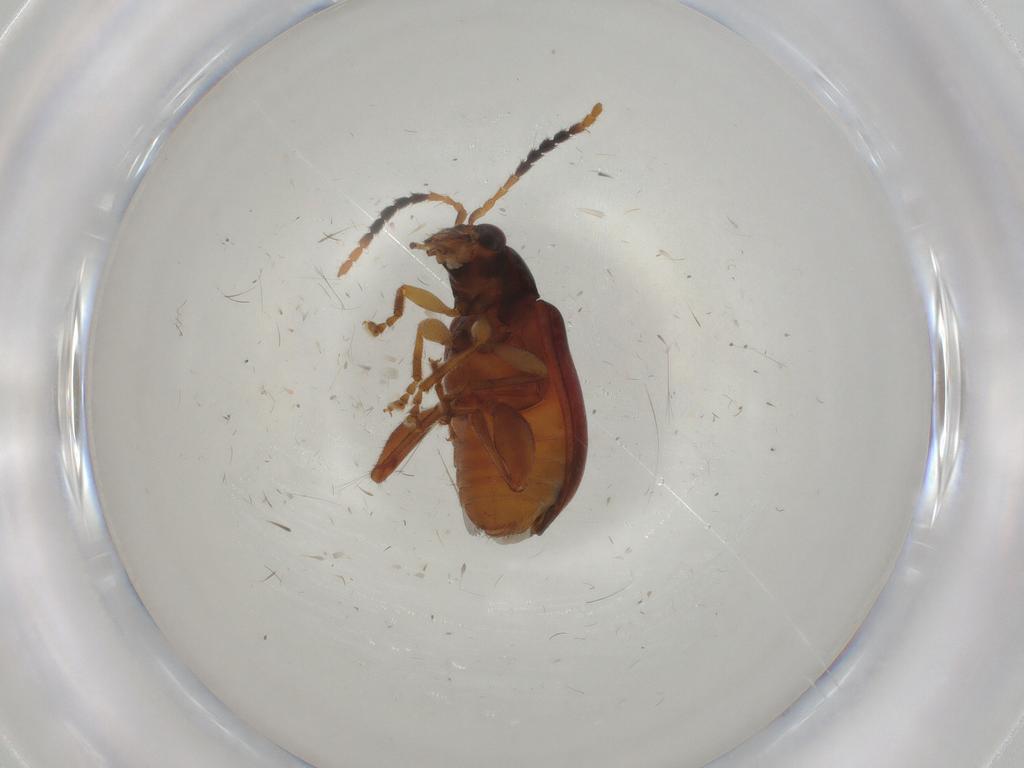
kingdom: Animalia
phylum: Arthropoda
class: Insecta
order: Coleoptera
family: Chrysomelidae
